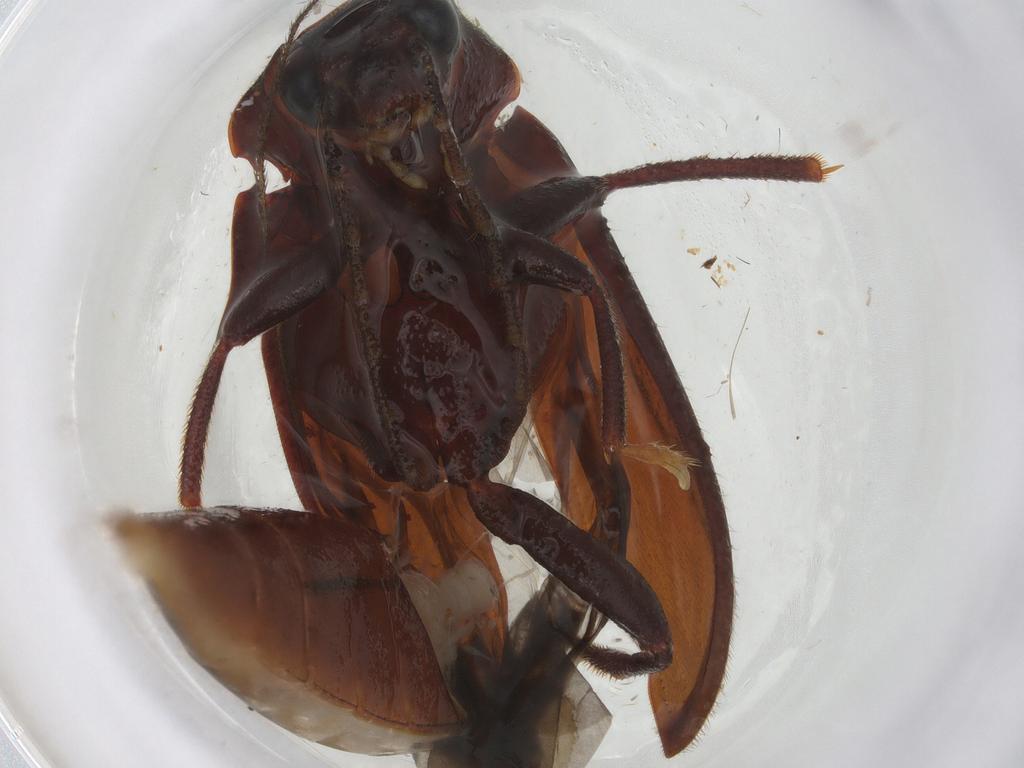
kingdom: Animalia
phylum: Arthropoda
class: Insecta
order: Coleoptera
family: Ptilodactylidae
